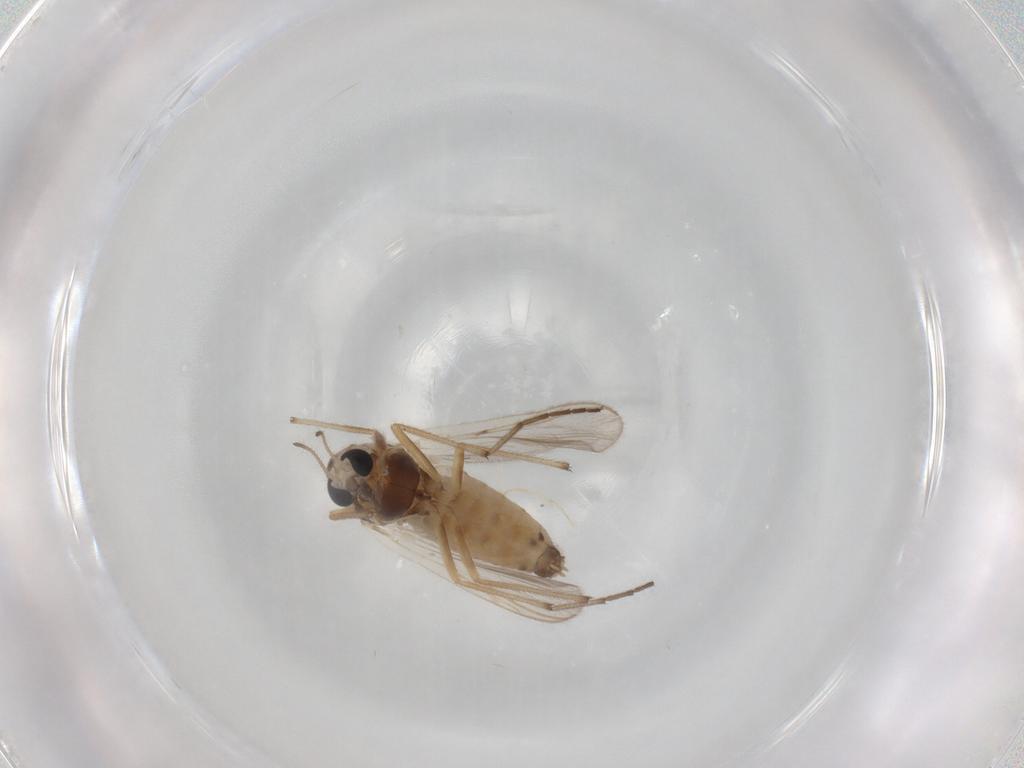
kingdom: Animalia
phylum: Arthropoda
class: Insecta
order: Diptera
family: Chironomidae
